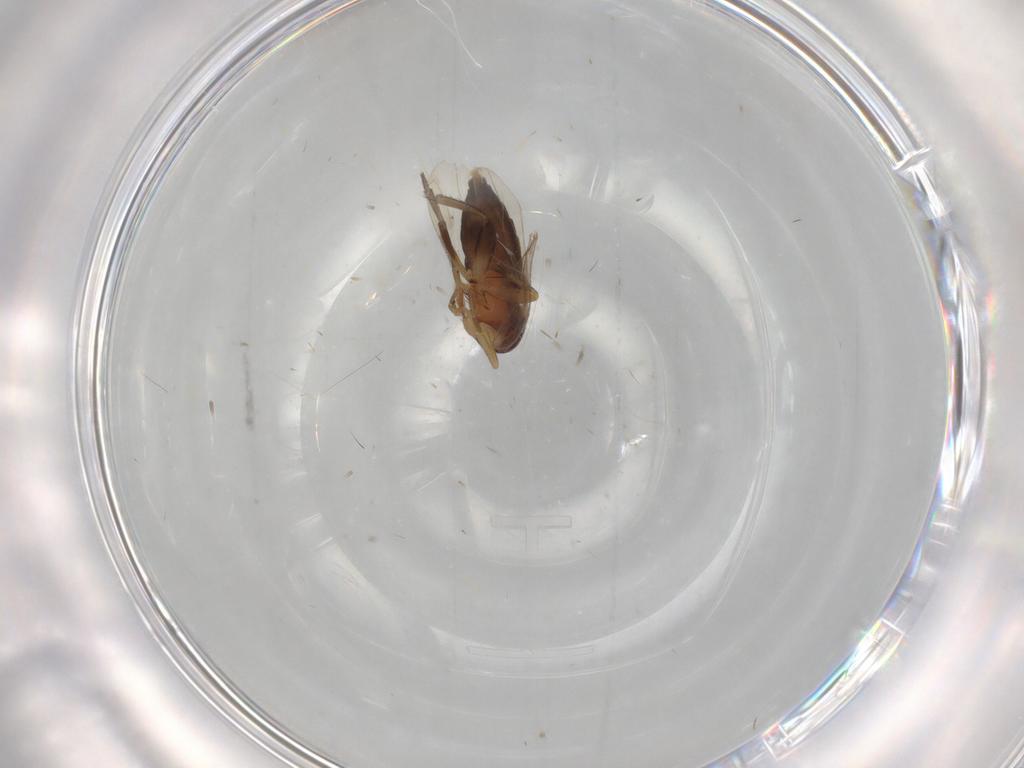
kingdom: Animalia
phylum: Arthropoda
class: Insecta
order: Diptera
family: Phoridae
